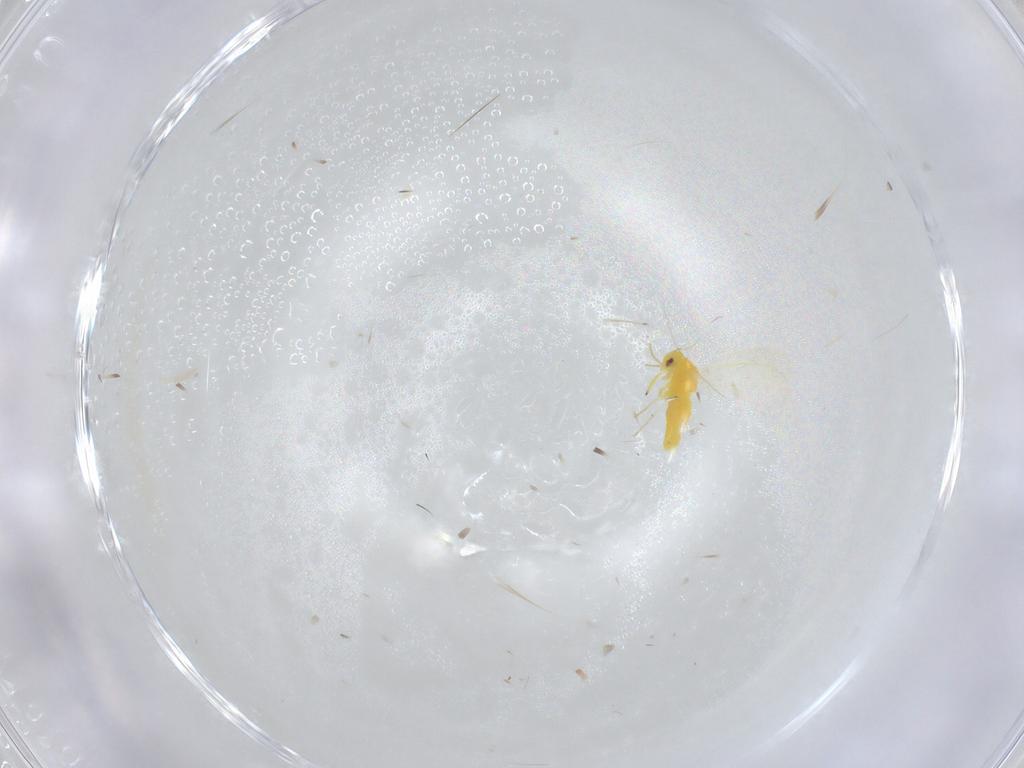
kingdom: Animalia
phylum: Arthropoda
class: Insecta
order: Hemiptera
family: Aleyrodidae
